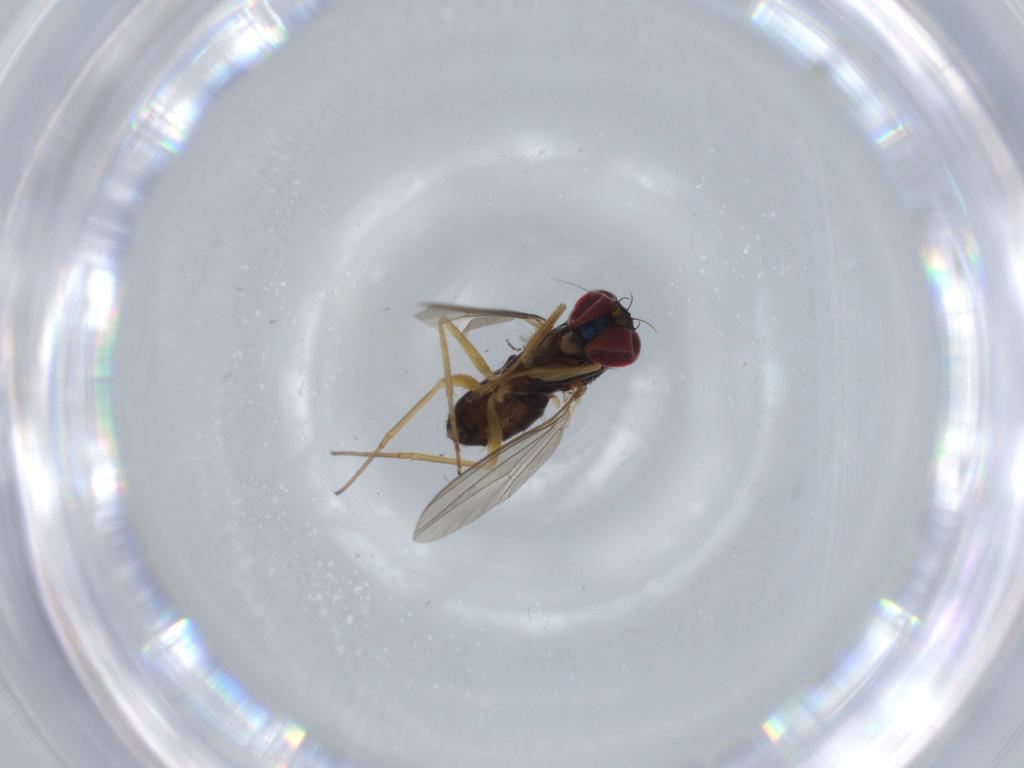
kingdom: Animalia
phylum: Arthropoda
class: Insecta
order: Diptera
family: Dolichopodidae
